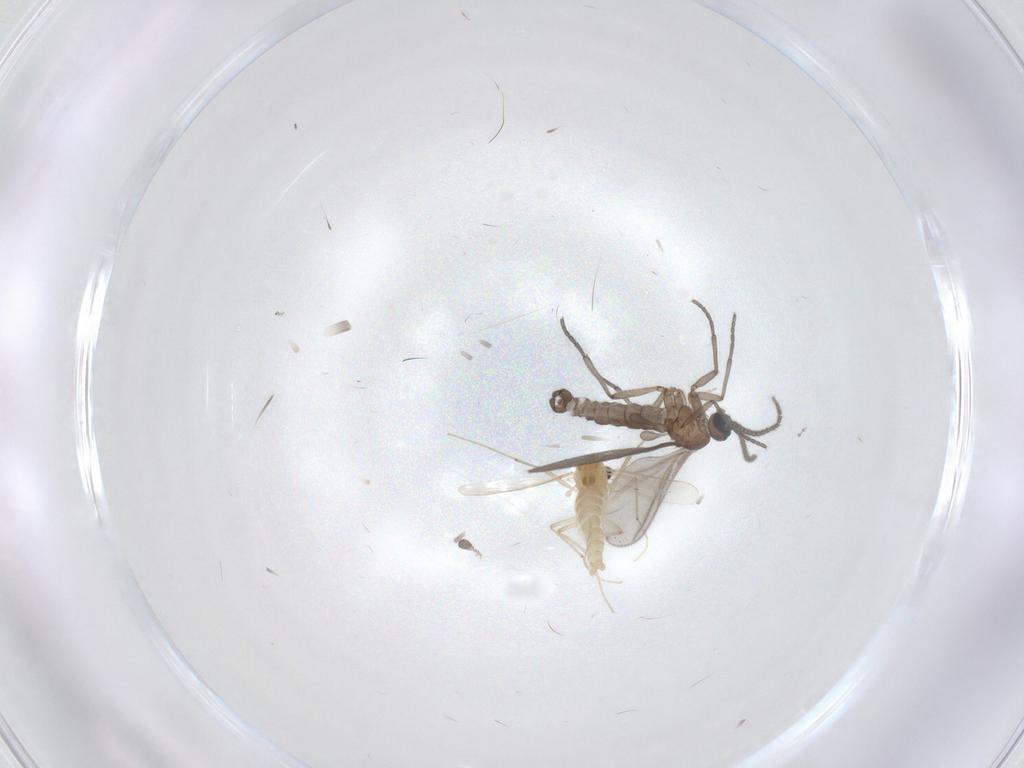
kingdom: Animalia
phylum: Arthropoda
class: Insecta
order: Diptera
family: Sciaridae
